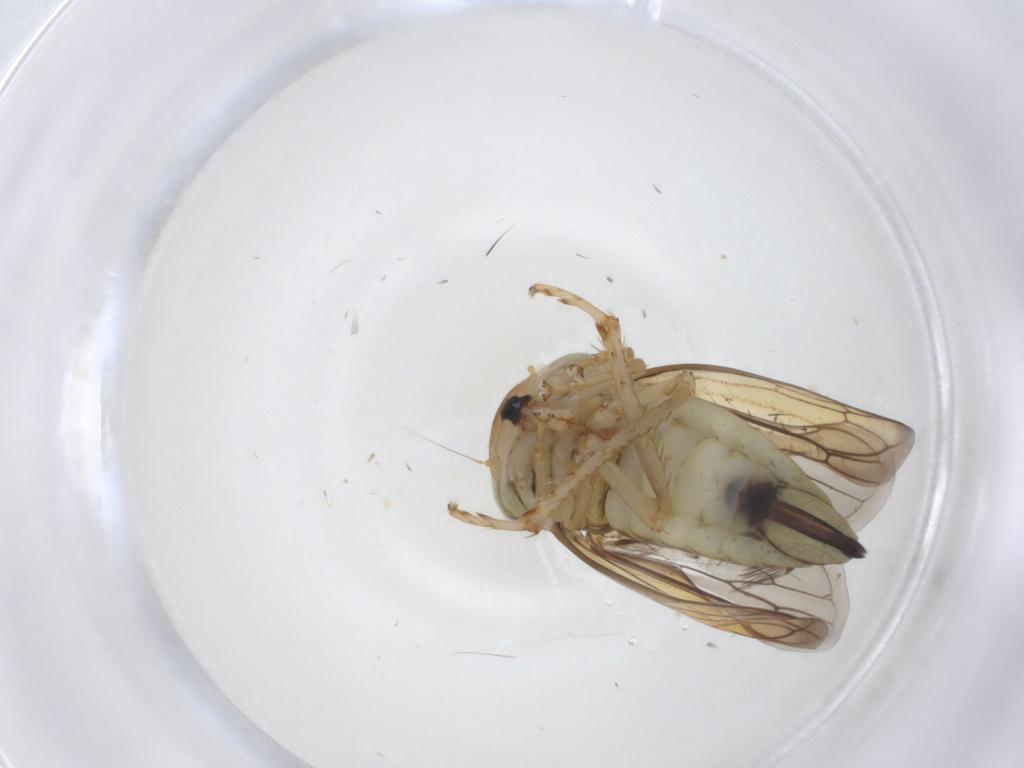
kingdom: Animalia
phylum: Arthropoda
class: Insecta
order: Hemiptera
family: Cicadellidae
